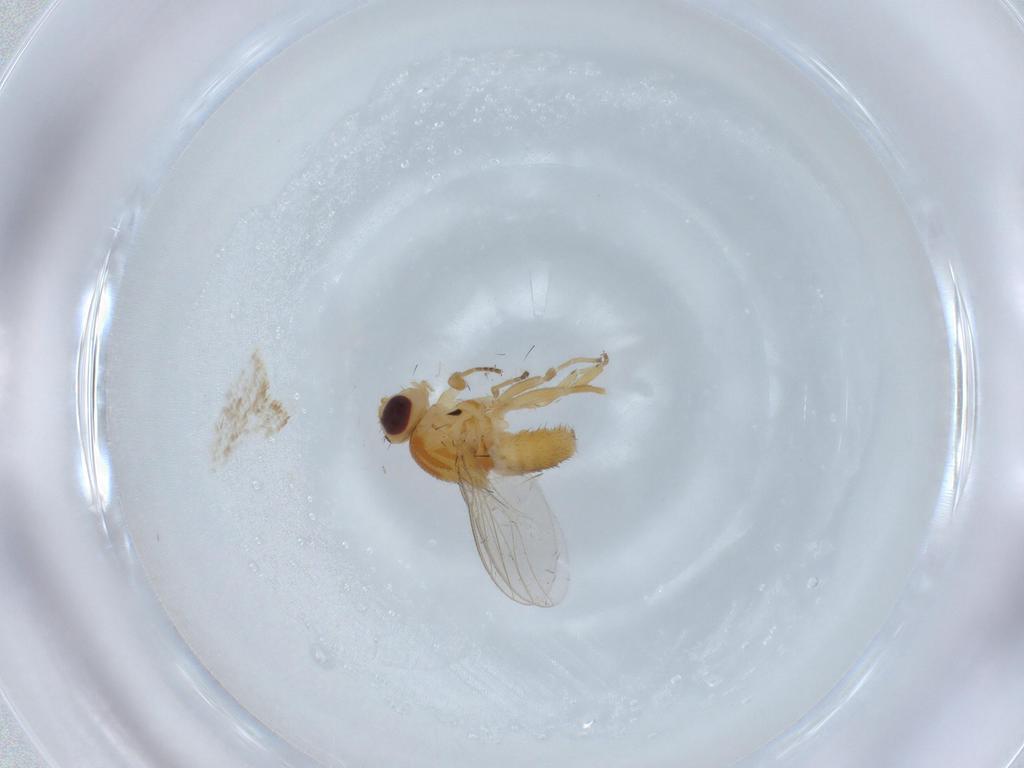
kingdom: Animalia
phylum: Arthropoda
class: Insecta
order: Diptera
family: Chloropidae
